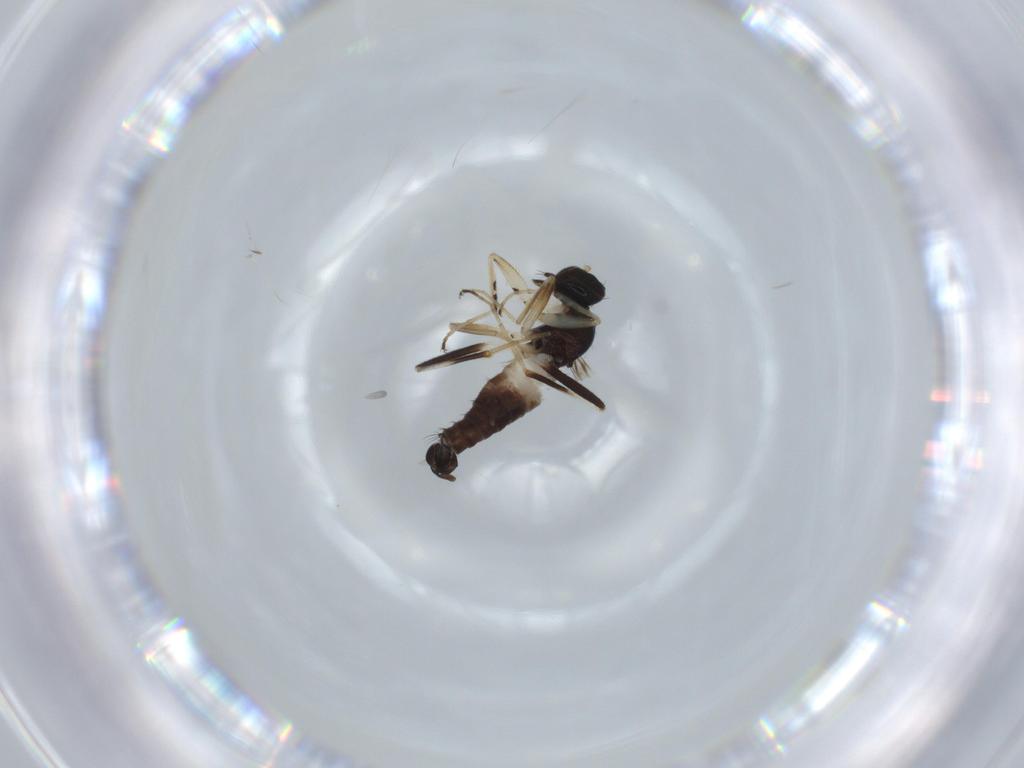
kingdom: Animalia
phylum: Arthropoda
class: Insecta
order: Diptera
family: Hybotidae
